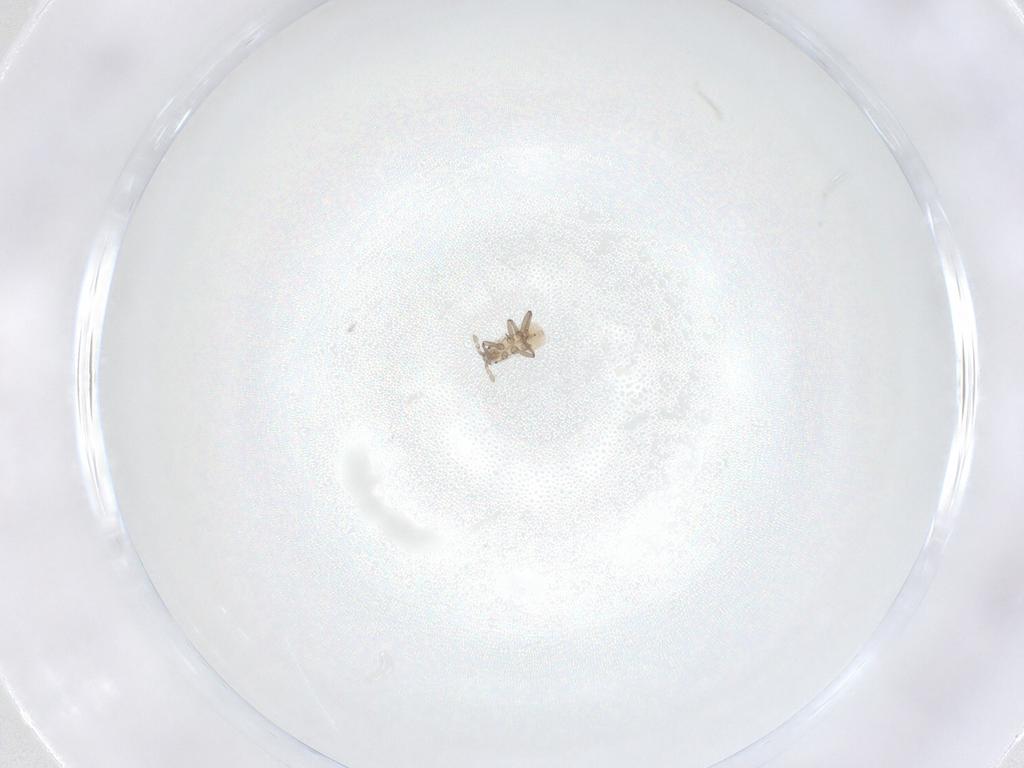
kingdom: Animalia
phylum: Arthropoda
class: Insecta
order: Hemiptera
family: Aphididae
